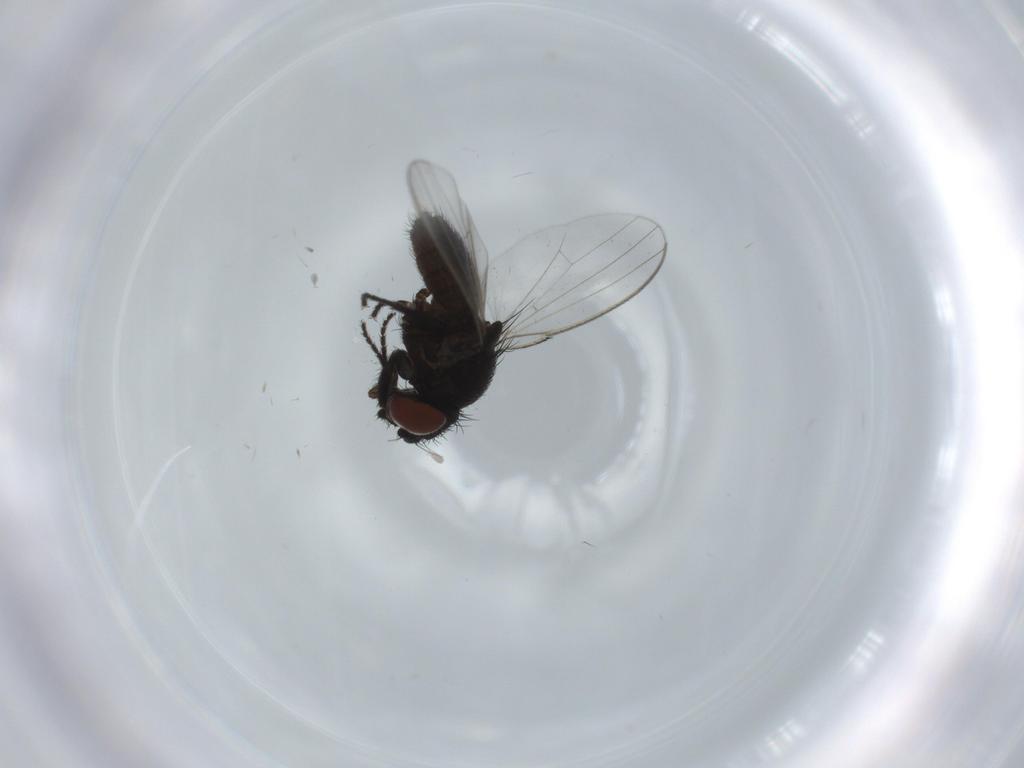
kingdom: Animalia
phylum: Arthropoda
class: Insecta
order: Diptera
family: Milichiidae
